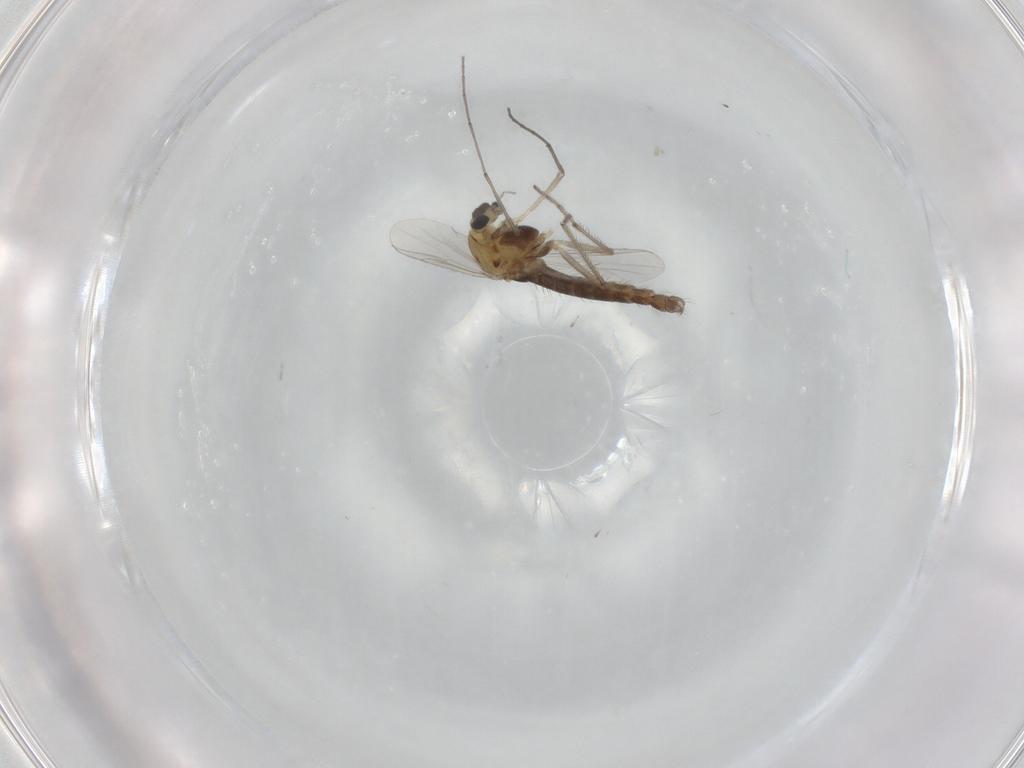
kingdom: Animalia
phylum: Arthropoda
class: Insecta
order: Diptera
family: Chironomidae
